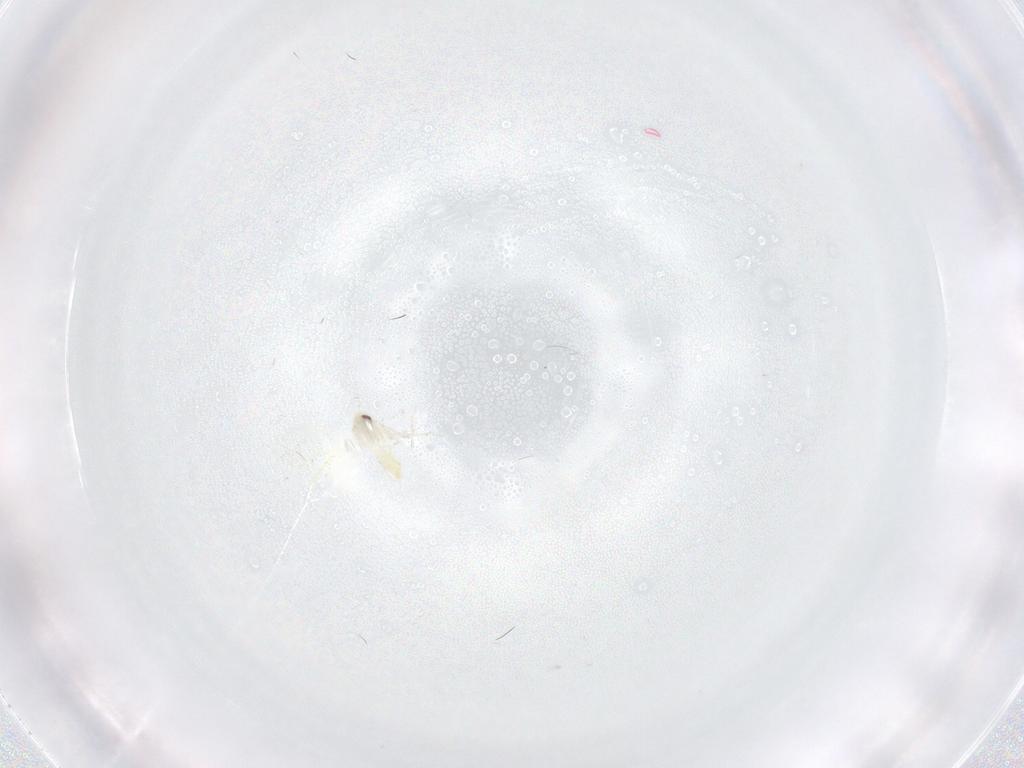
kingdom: Animalia
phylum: Arthropoda
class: Insecta
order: Hemiptera
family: Aleyrodidae
